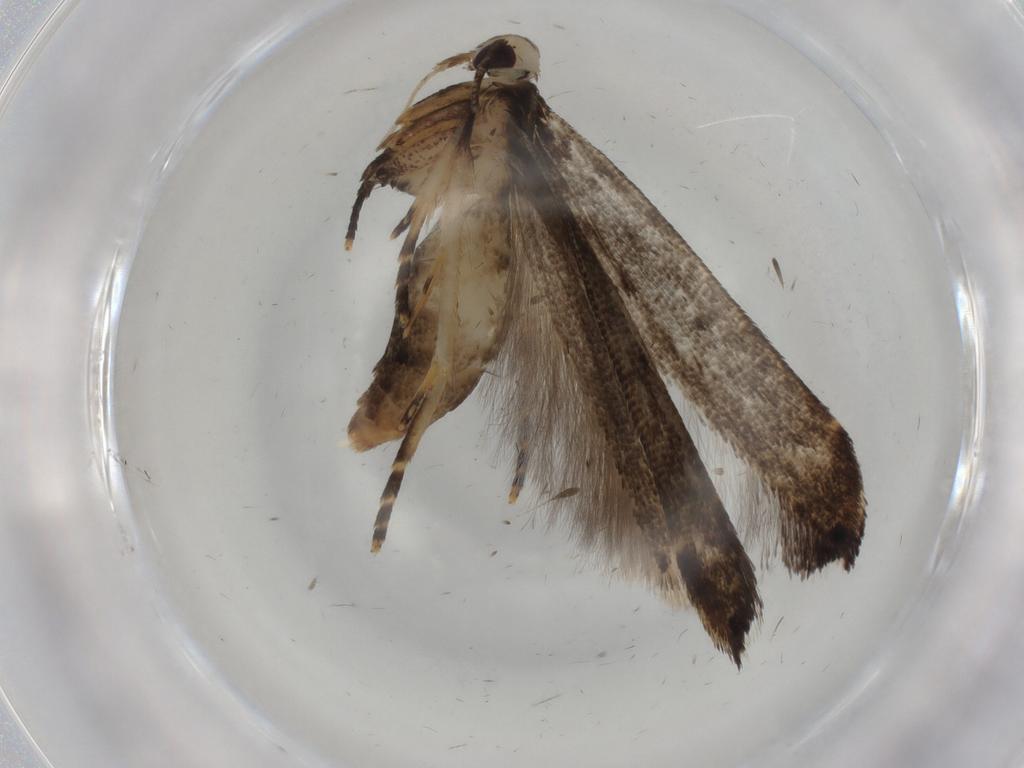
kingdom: Animalia
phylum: Arthropoda
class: Insecta
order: Lepidoptera
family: Cosmopterigidae
